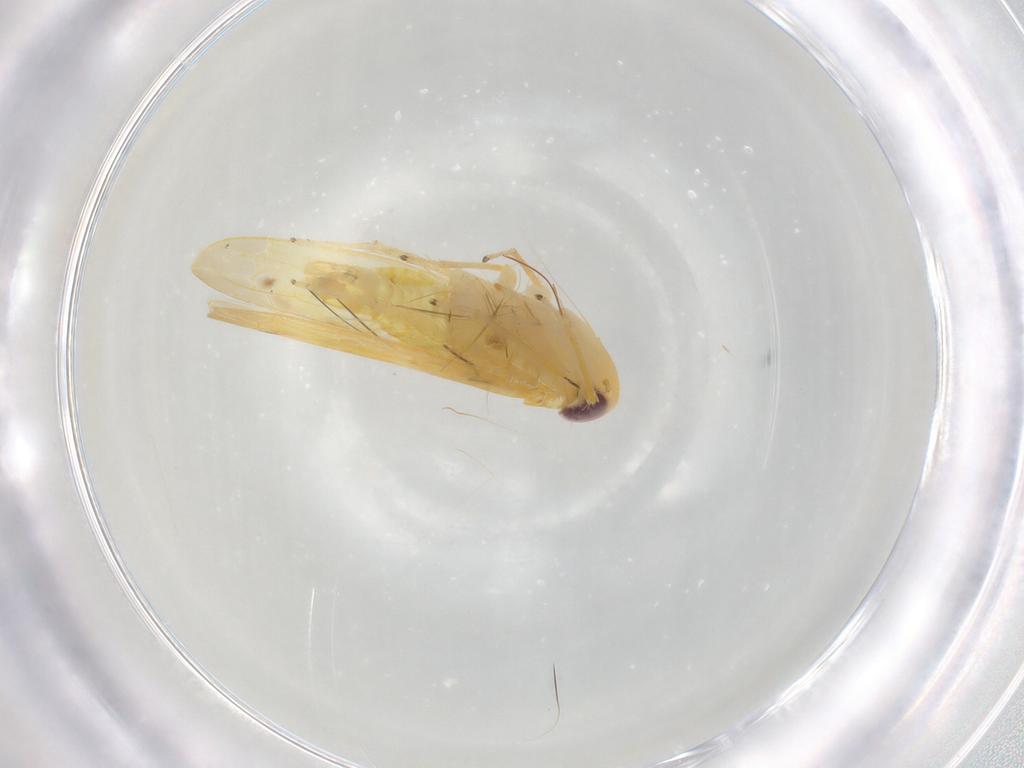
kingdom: Animalia
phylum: Arthropoda
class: Insecta
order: Hemiptera
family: Cicadellidae
